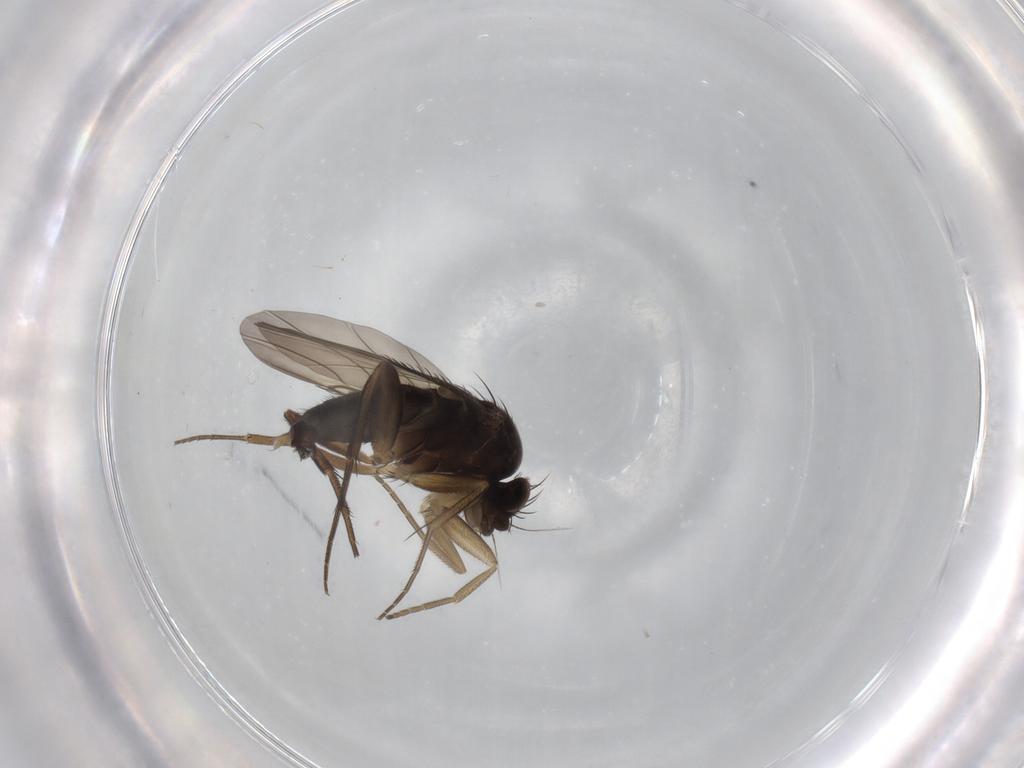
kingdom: Animalia
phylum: Arthropoda
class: Insecta
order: Diptera
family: Phoridae
